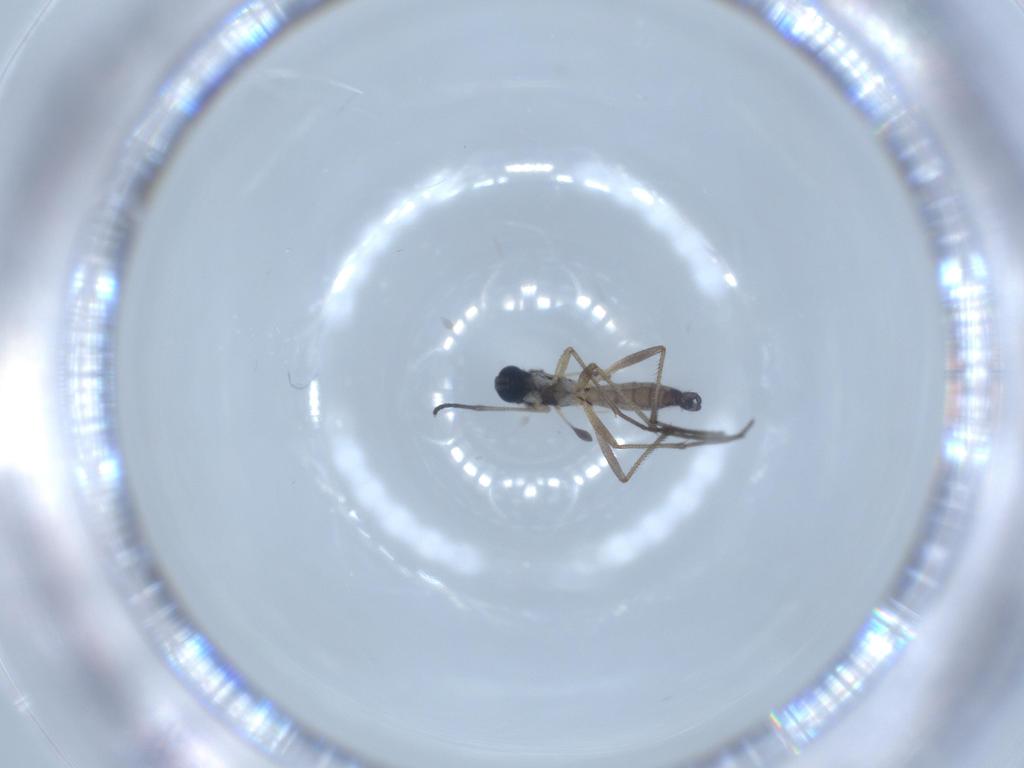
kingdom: Animalia
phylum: Arthropoda
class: Insecta
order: Diptera
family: Sciaridae
